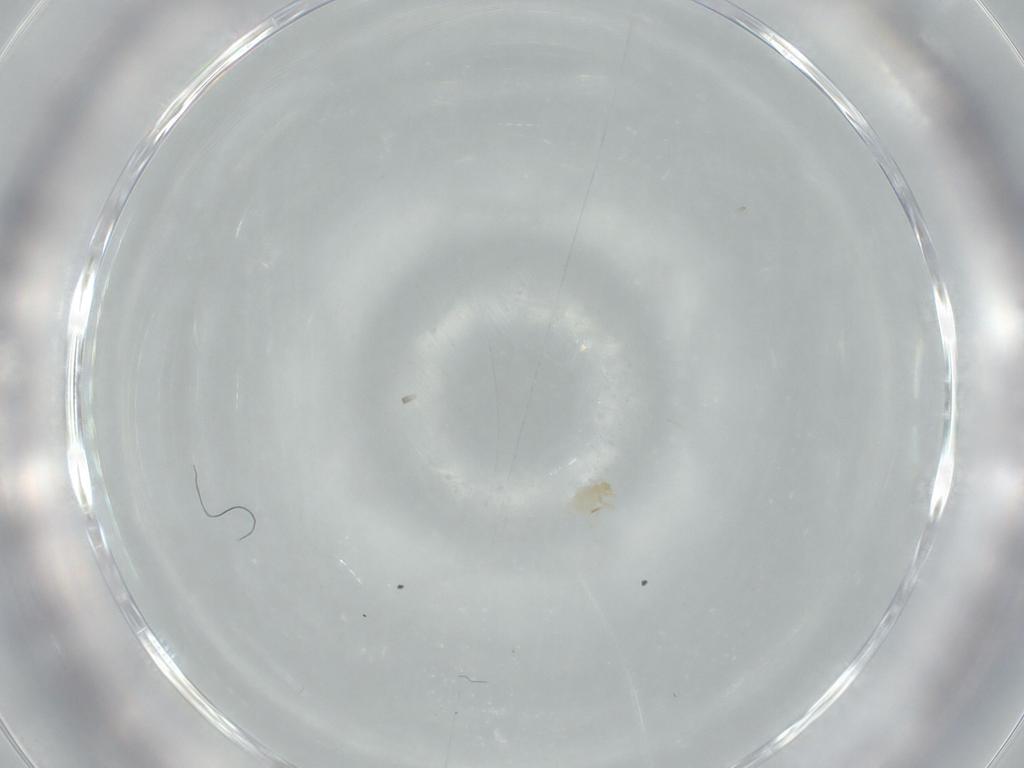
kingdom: Animalia
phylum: Arthropoda
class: Arachnida
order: Trombidiformes
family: Erythraeidae
